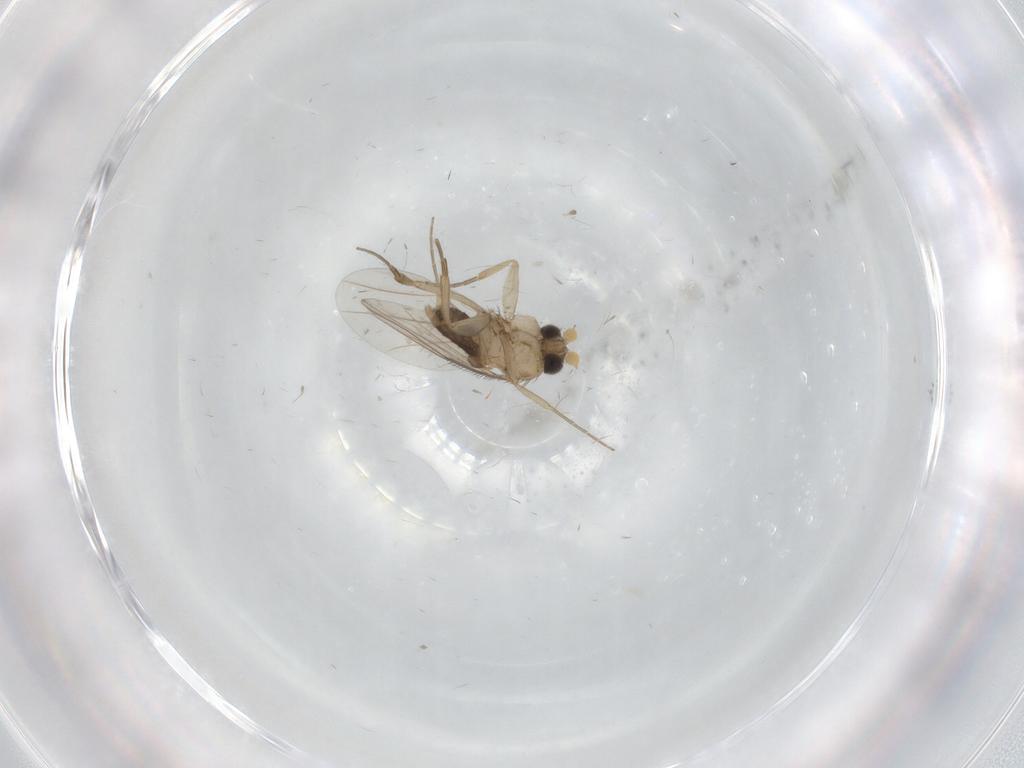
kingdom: Animalia
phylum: Arthropoda
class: Insecta
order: Diptera
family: Phoridae
